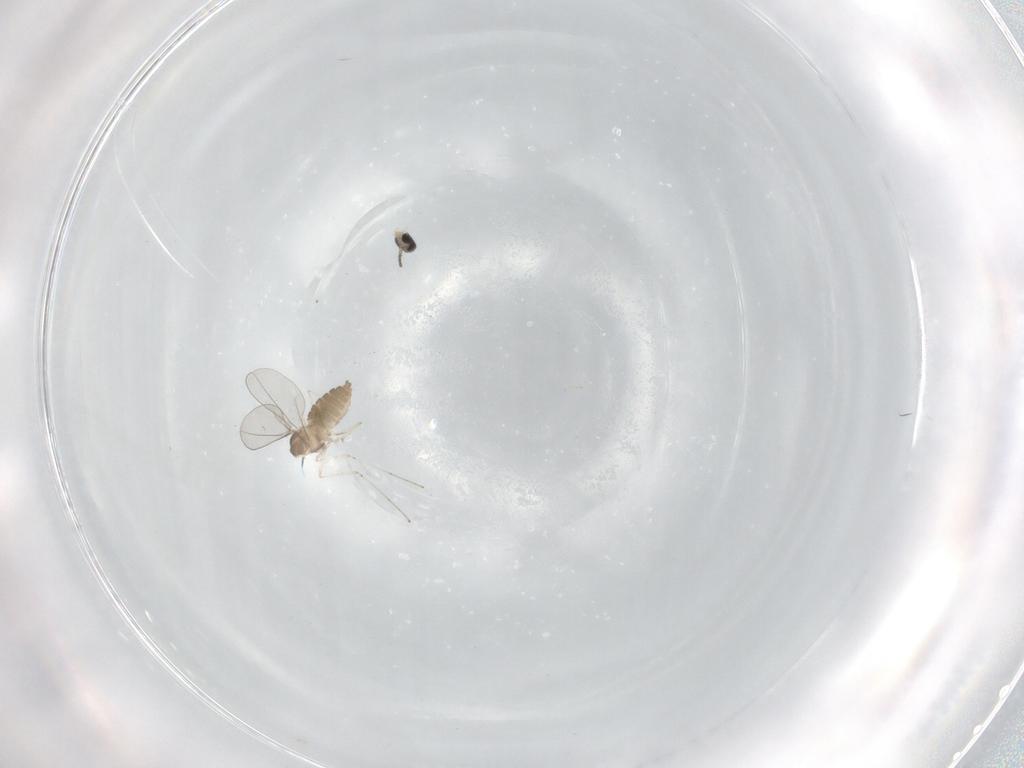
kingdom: Animalia
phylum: Arthropoda
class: Insecta
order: Diptera
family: Cecidomyiidae
